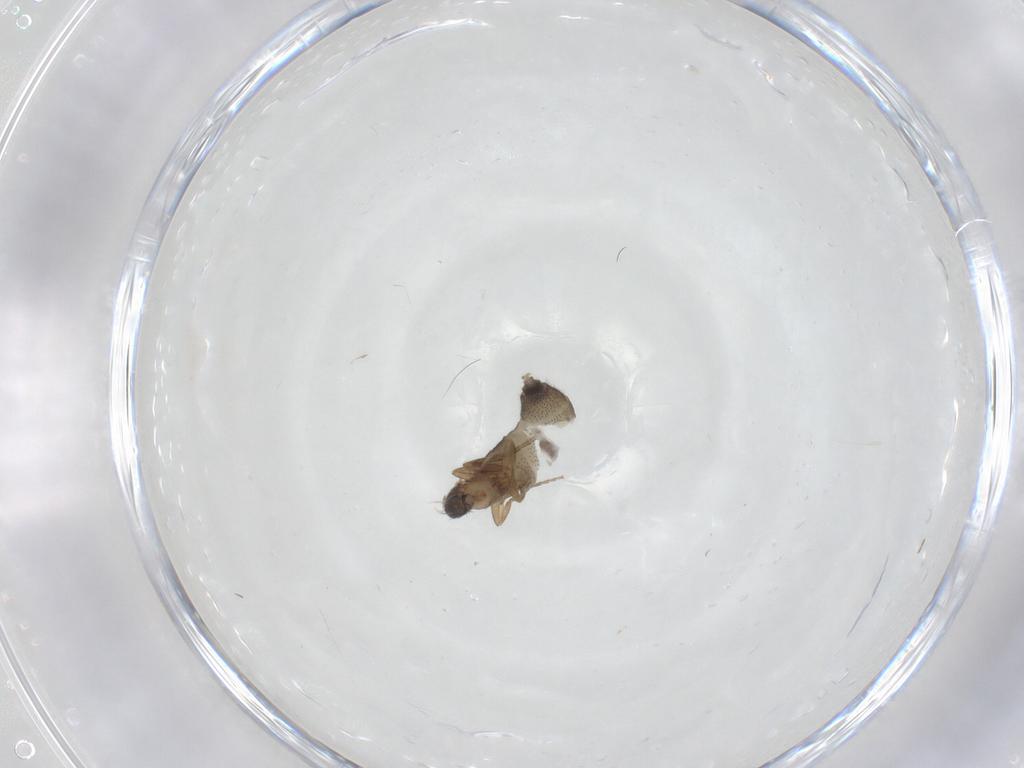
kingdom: Animalia
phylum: Arthropoda
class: Insecta
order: Diptera
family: Phoridae
